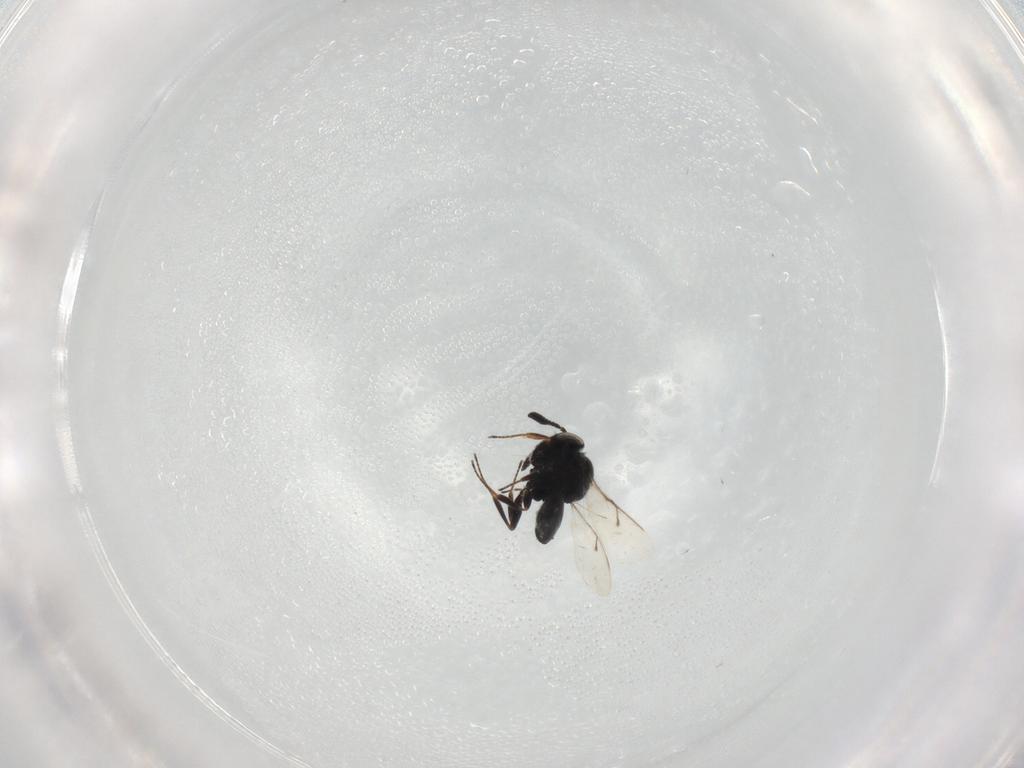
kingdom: Animalia
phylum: Arthropoda
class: Insecta
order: Hymenoptera
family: Scelionidae
